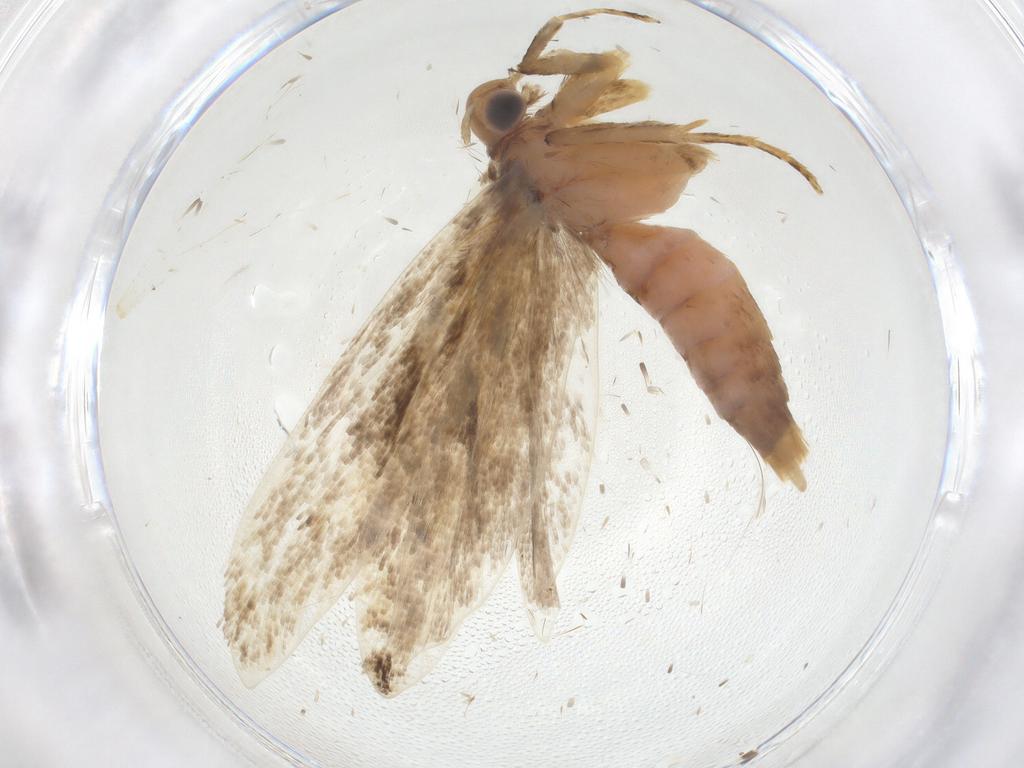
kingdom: Animalia
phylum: Arthropoda
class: Insecta
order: Lepidoptera
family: Gelechiidae
